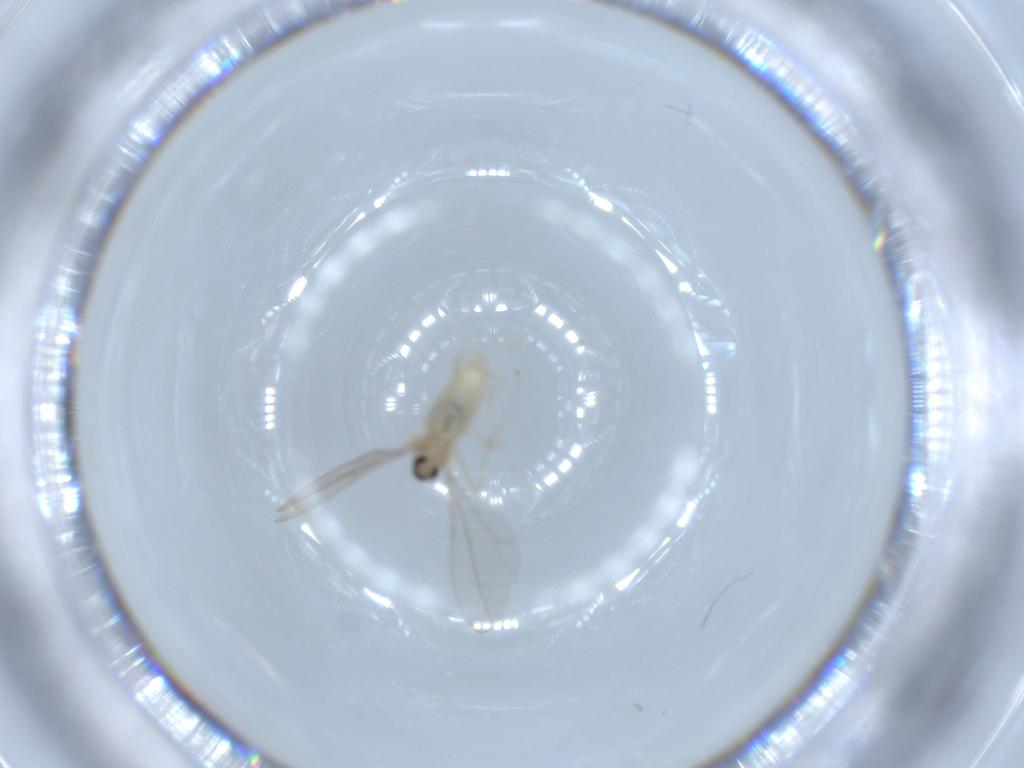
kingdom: Animalia
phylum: Arthropoda
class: Insecta
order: Diptera
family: Cecidomyiidae
